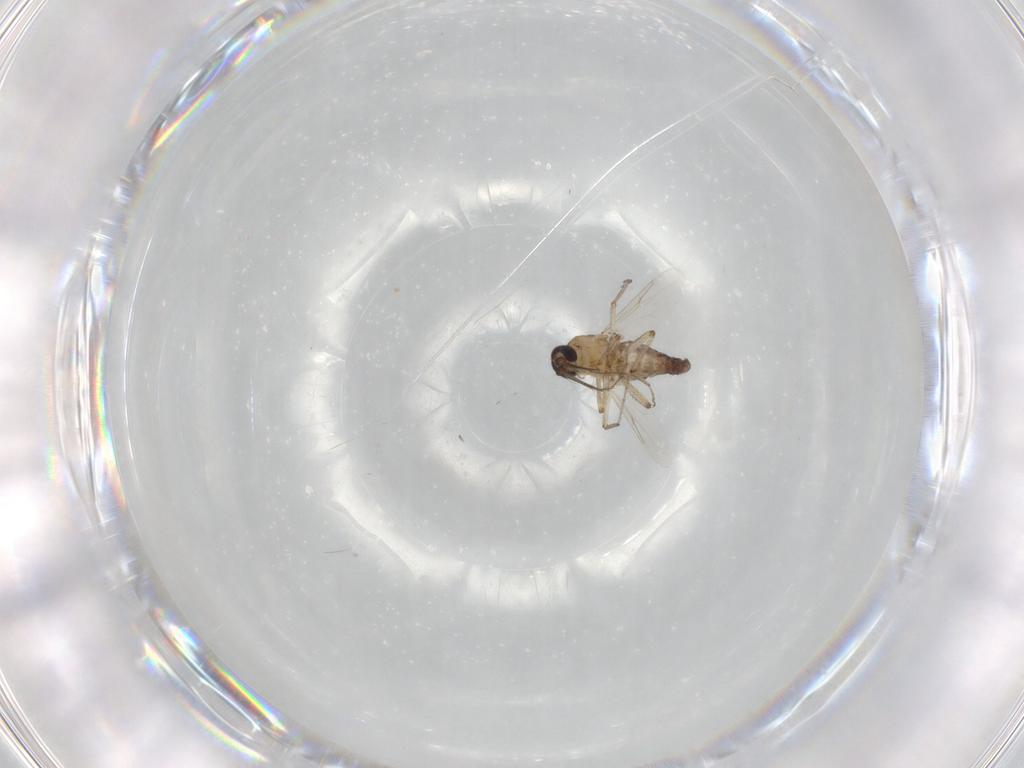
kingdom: Animalia
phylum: Arthropoda
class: Insecta
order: Diptera
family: Ceratopogonidae
